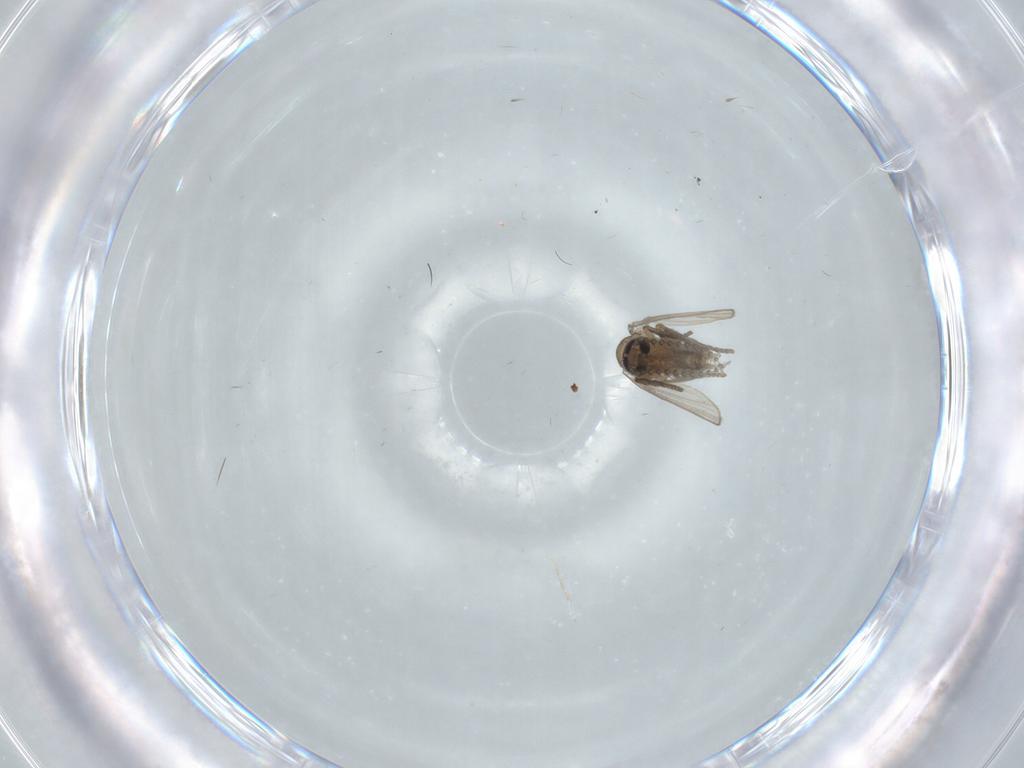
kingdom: Animalia
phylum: Arthropoda
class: Insecta
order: Diptera
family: Psychodidae
